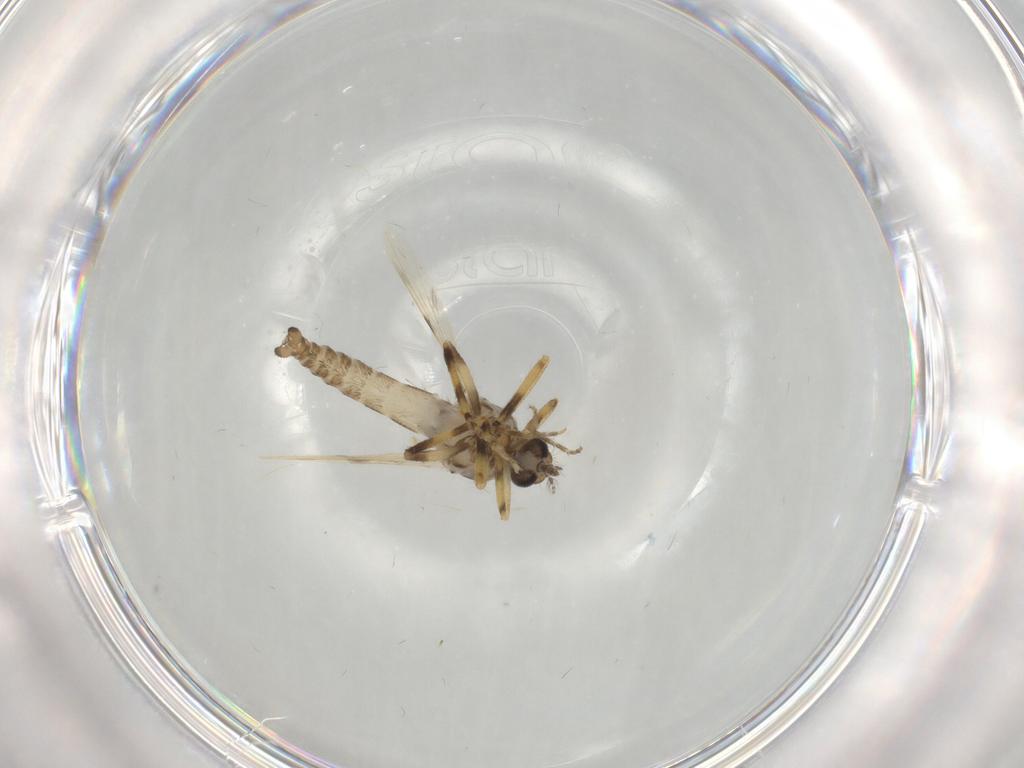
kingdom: Animalia
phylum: Arthropoda
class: Insecta
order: Diptera
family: Ceratopogonidae
